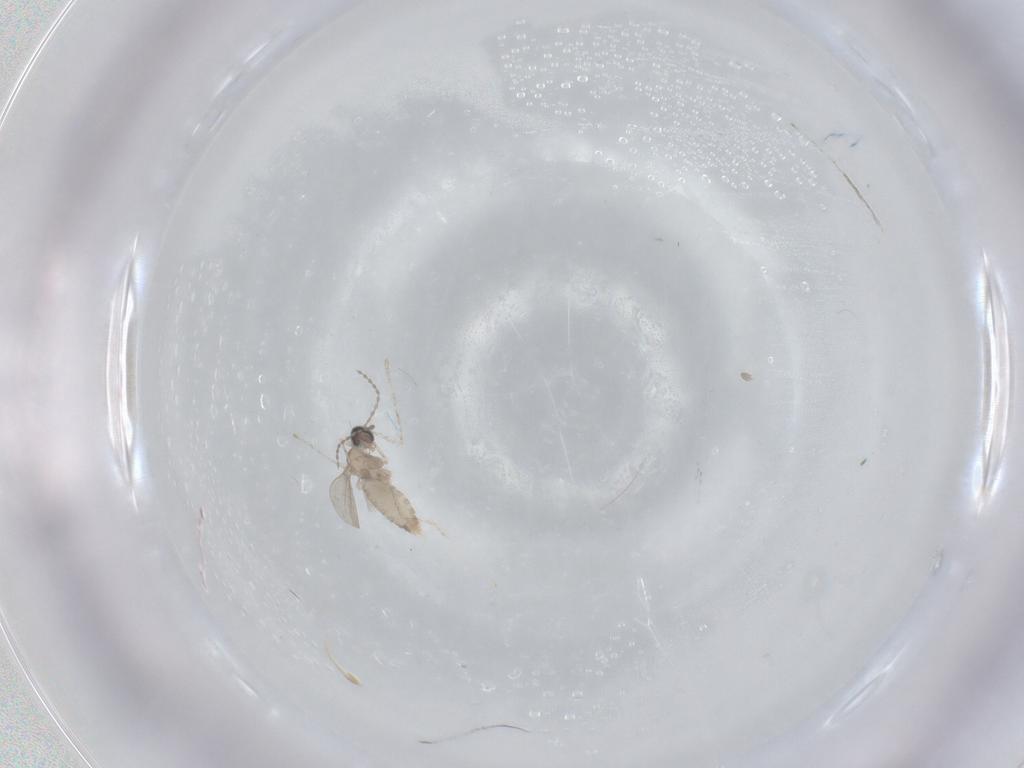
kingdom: Animalia
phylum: Arthropoda
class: Insecta
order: Diptera
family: Cecidomyiidae
